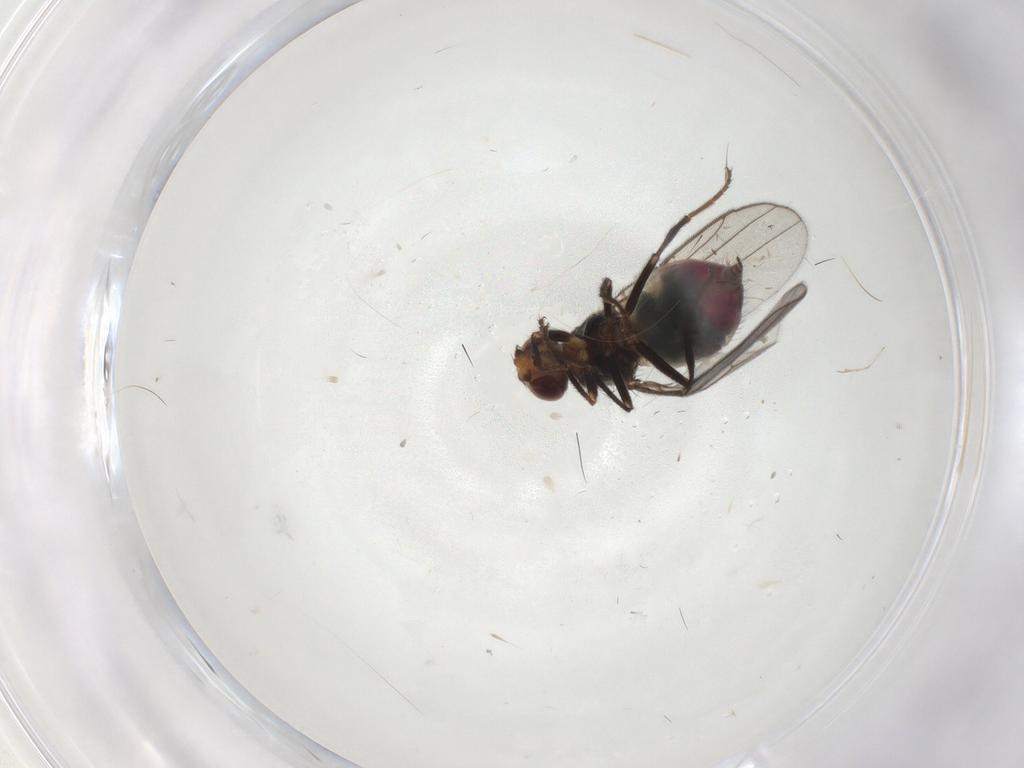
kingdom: Animalia
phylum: Arthropoda
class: Insecta
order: Diptera
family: Chloropidae
